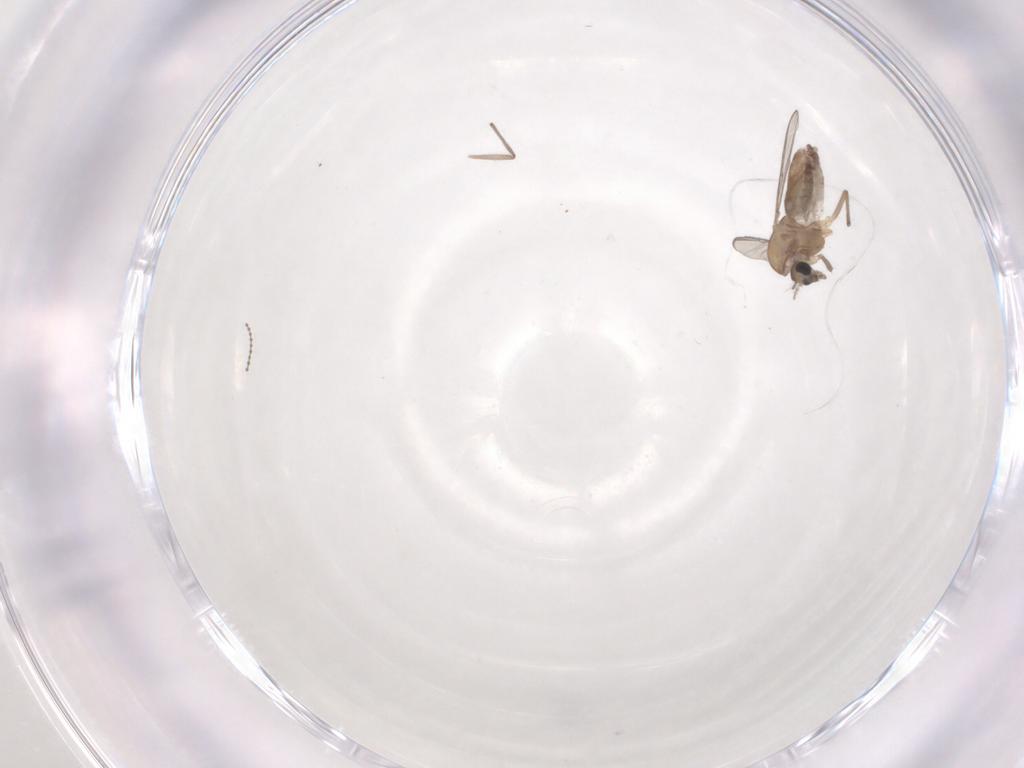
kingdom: Animalia
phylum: Arthropoda
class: Insecta
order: Diptera
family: Chironomidae
